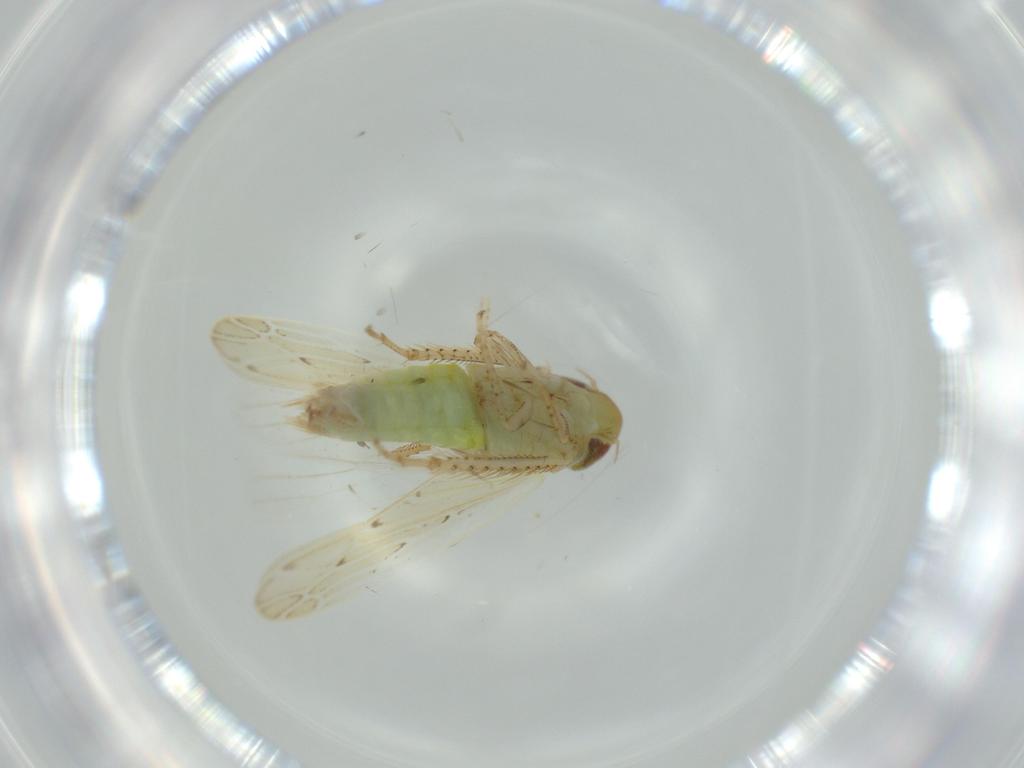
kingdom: Animalia
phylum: Arthropoda
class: Insecta
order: Hemiptera
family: Cicadellidae
